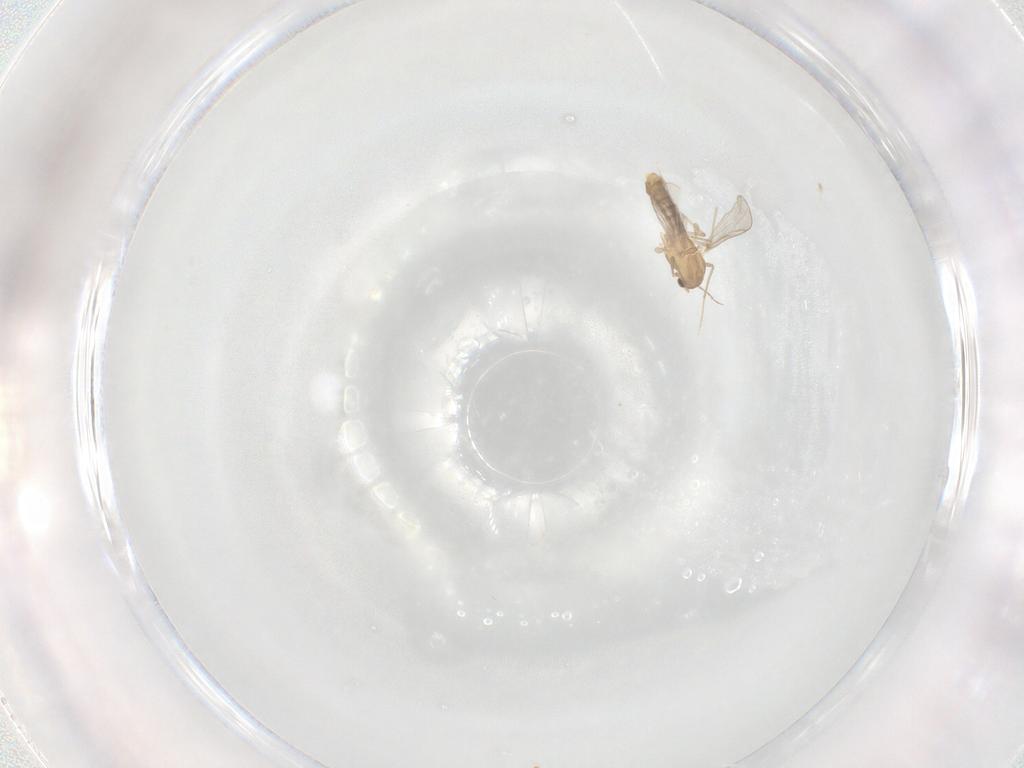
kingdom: Animalia
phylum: Arthropoda
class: Insecta
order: Diptera
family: Chironomidae
